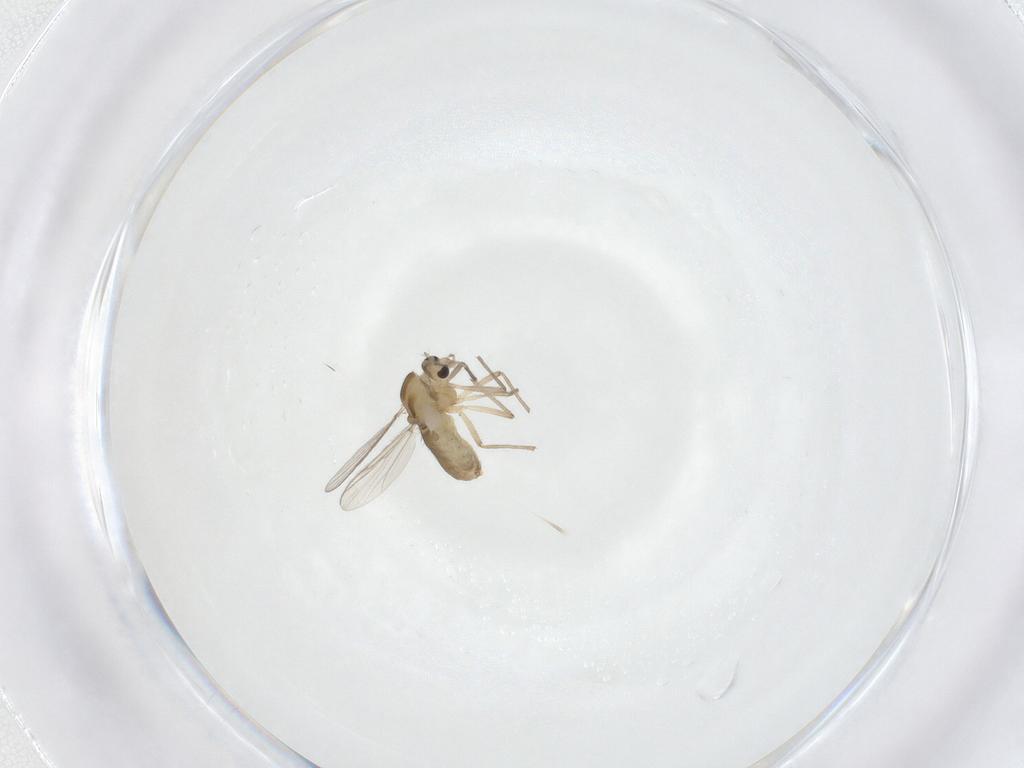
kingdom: Animalia
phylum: Arthropoda
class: Insecta
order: Diptera
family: Chironomidae
